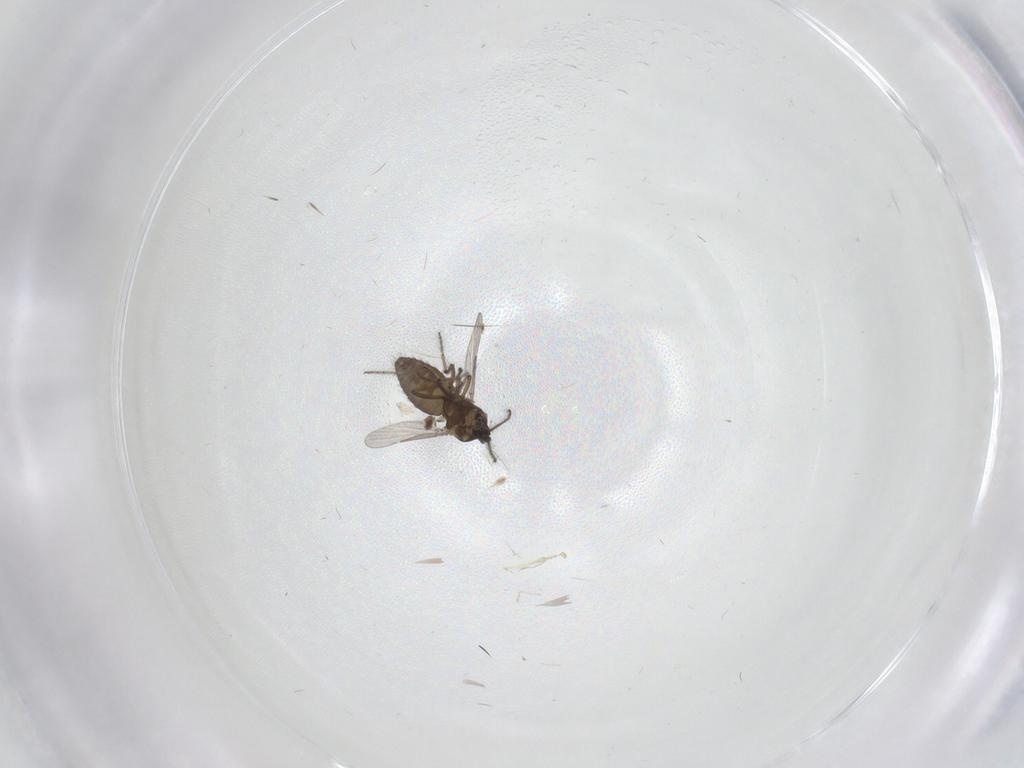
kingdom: Animalia
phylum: Arthropoda
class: Insecta
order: Diptera
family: Ceratopogonidae
